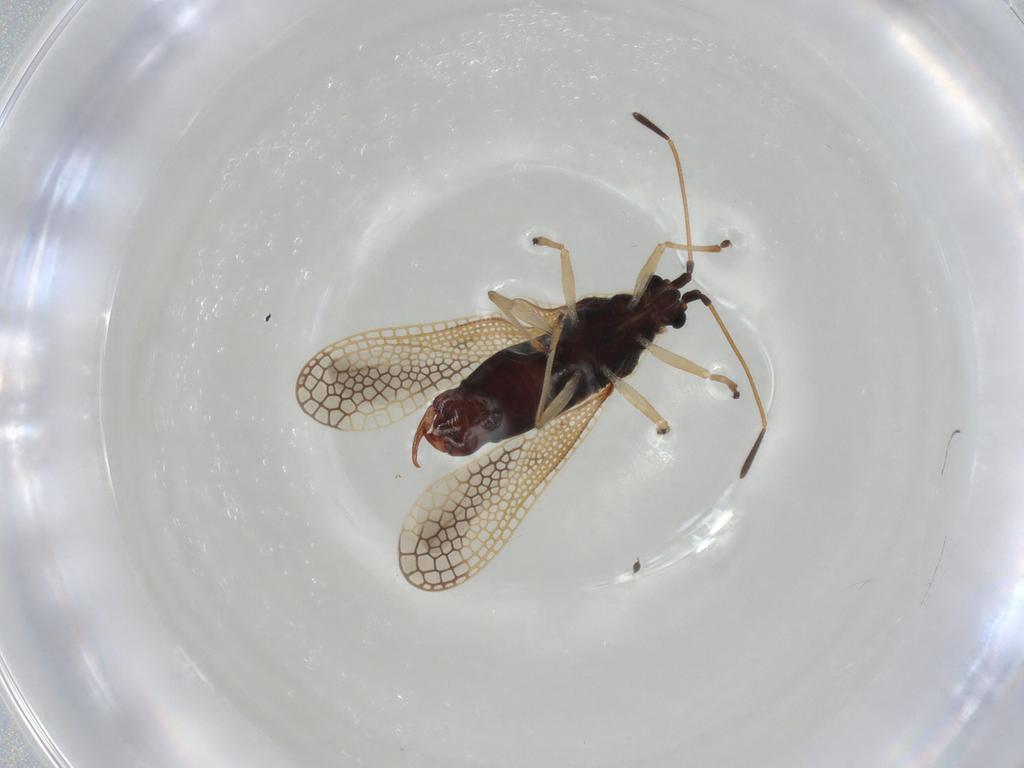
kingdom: Animalia
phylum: Arthropoda
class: Insecta
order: Hemiptera
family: Tingidae
